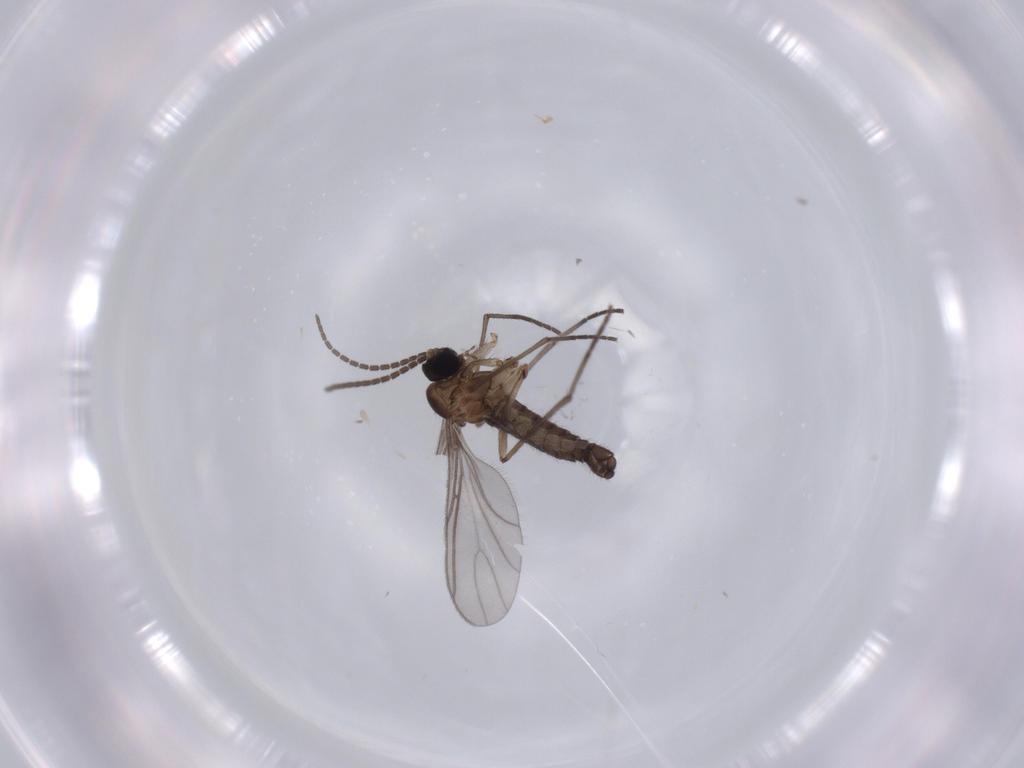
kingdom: Animalia
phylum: Arthropoda
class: Insecta
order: Diptera
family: Sciaridae
